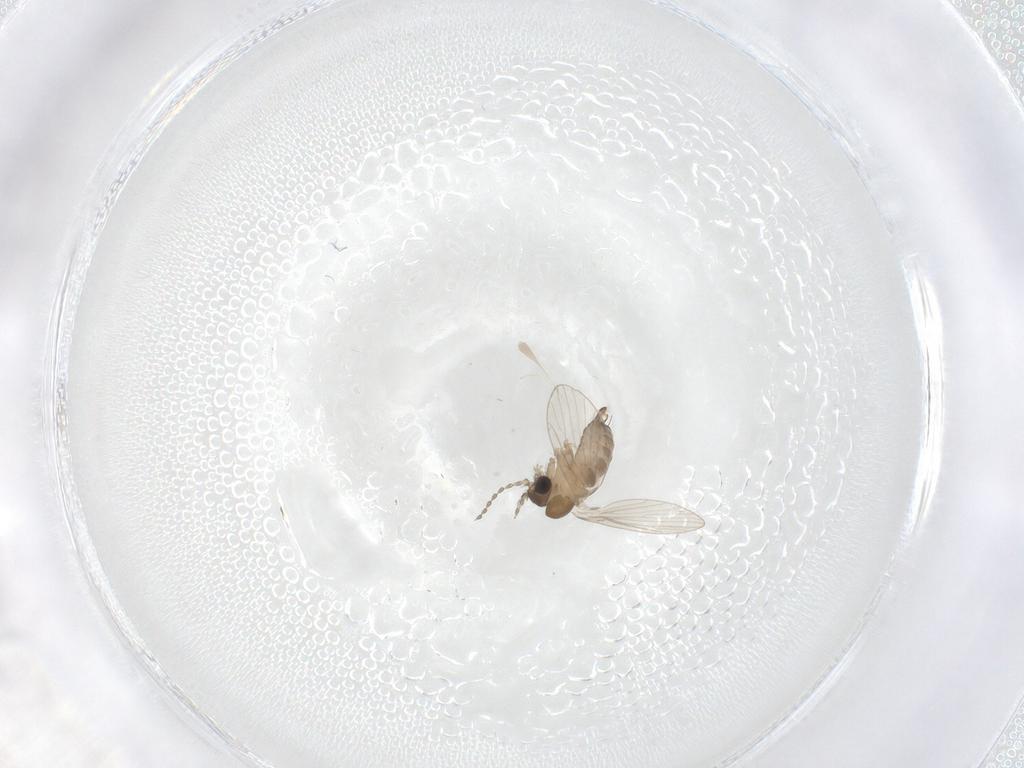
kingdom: Animalia
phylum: Arthropoda
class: Insecta
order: Diptera
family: Psychodidae
